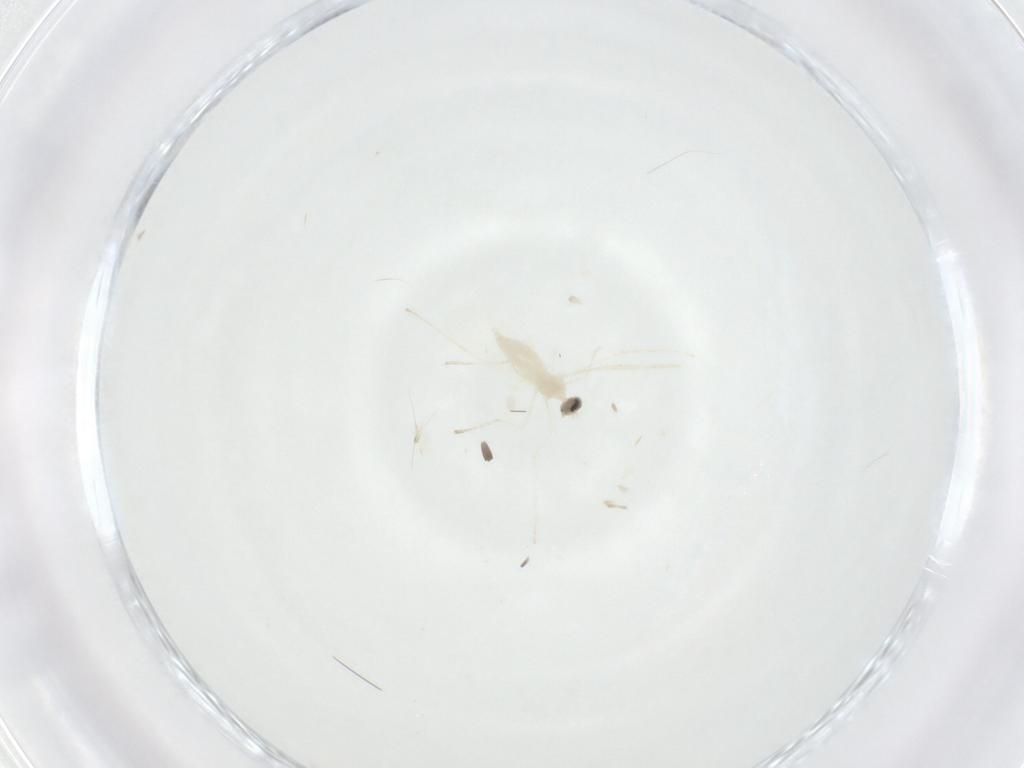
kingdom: Animalia
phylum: Arthropoda
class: Insecta
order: Diptera
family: Cecidomyiidae
